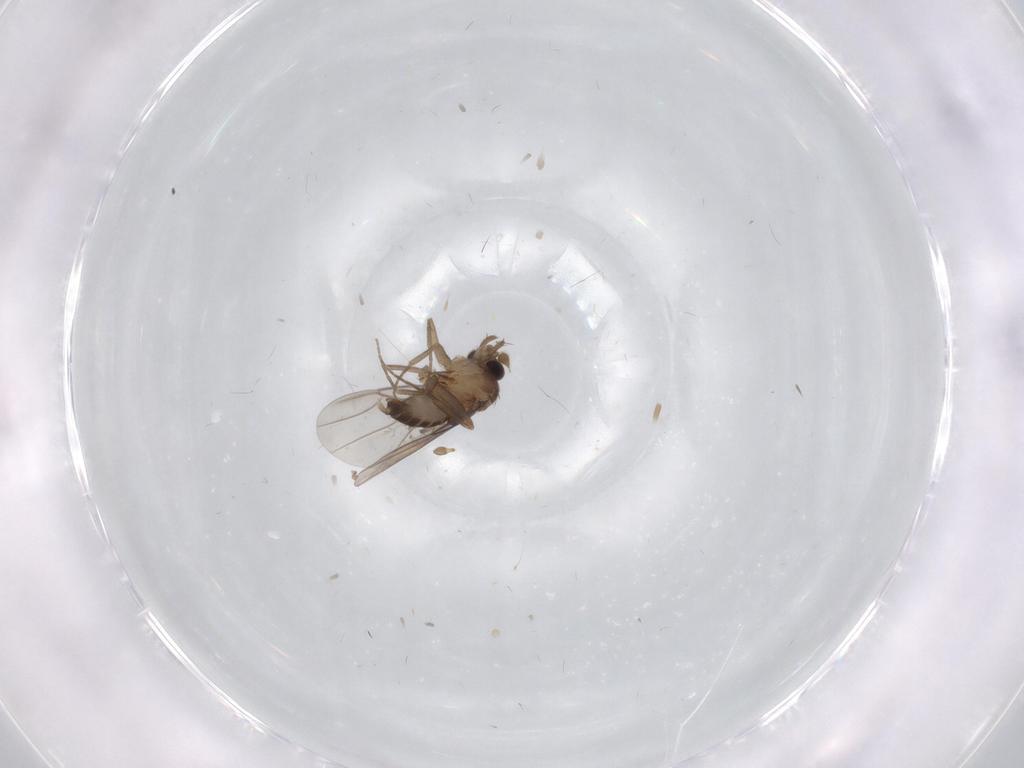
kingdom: Animalia
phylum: Arthropoda
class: Insecta
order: Diptera
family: Phoridae
